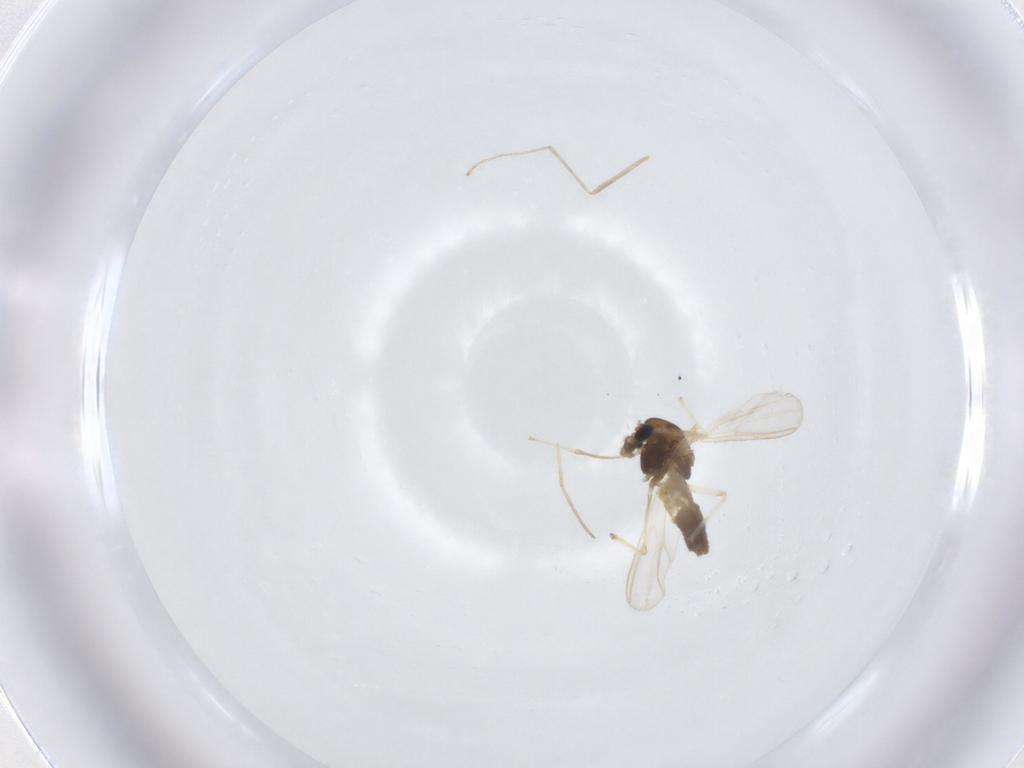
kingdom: Animalia
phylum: Arthropoda
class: Insecta
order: Diptera
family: Chironomidae
